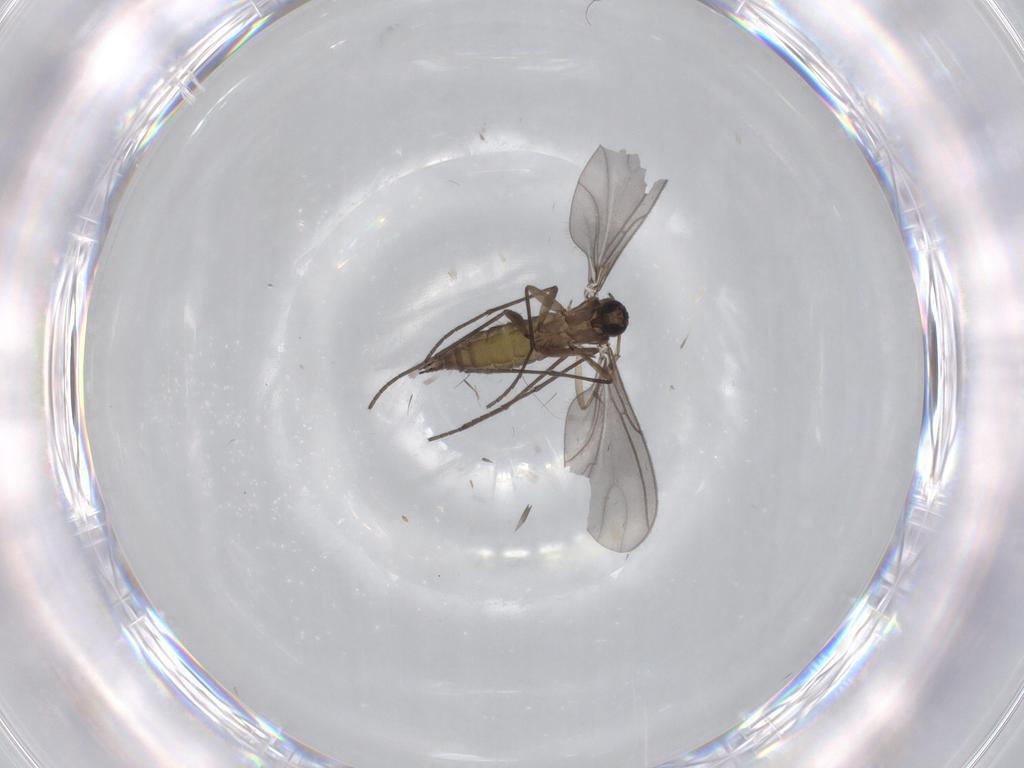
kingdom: Animalia
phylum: Arthropoda
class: Insecta
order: Diptera
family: Sciaridae
